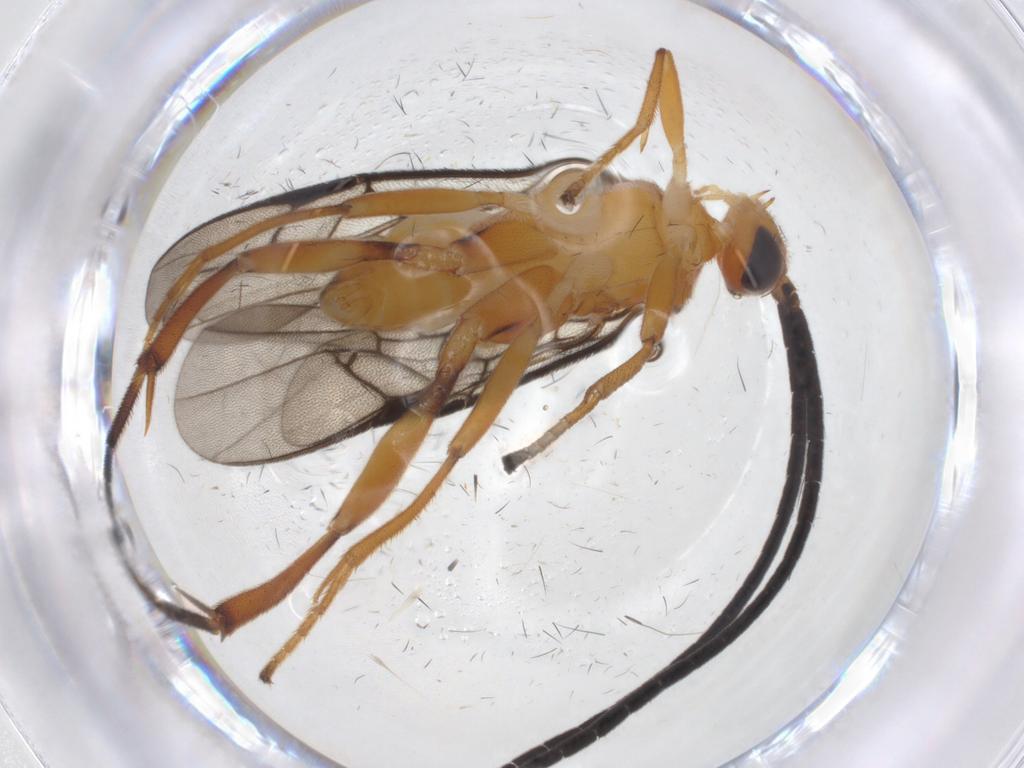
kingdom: Animalia
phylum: Arthropoda
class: Insecta
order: Hymenoptera
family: Braconidae
